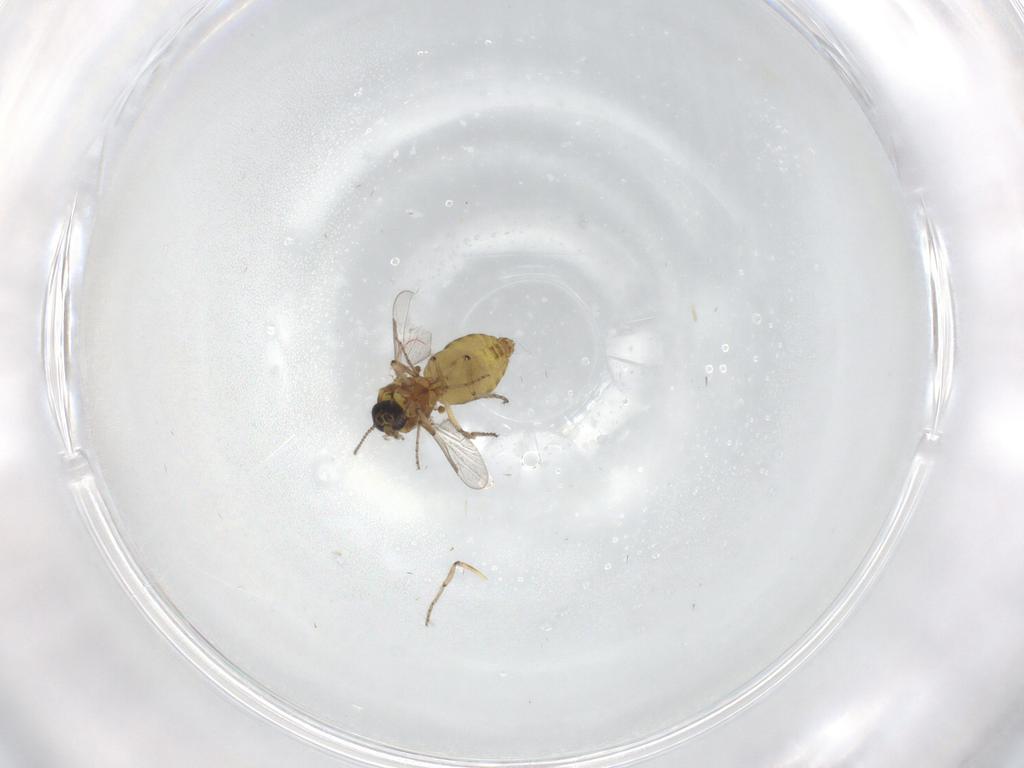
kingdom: Animalia
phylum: Arthropoda
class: Insecta
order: Diptera
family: Ceratopogonidae
